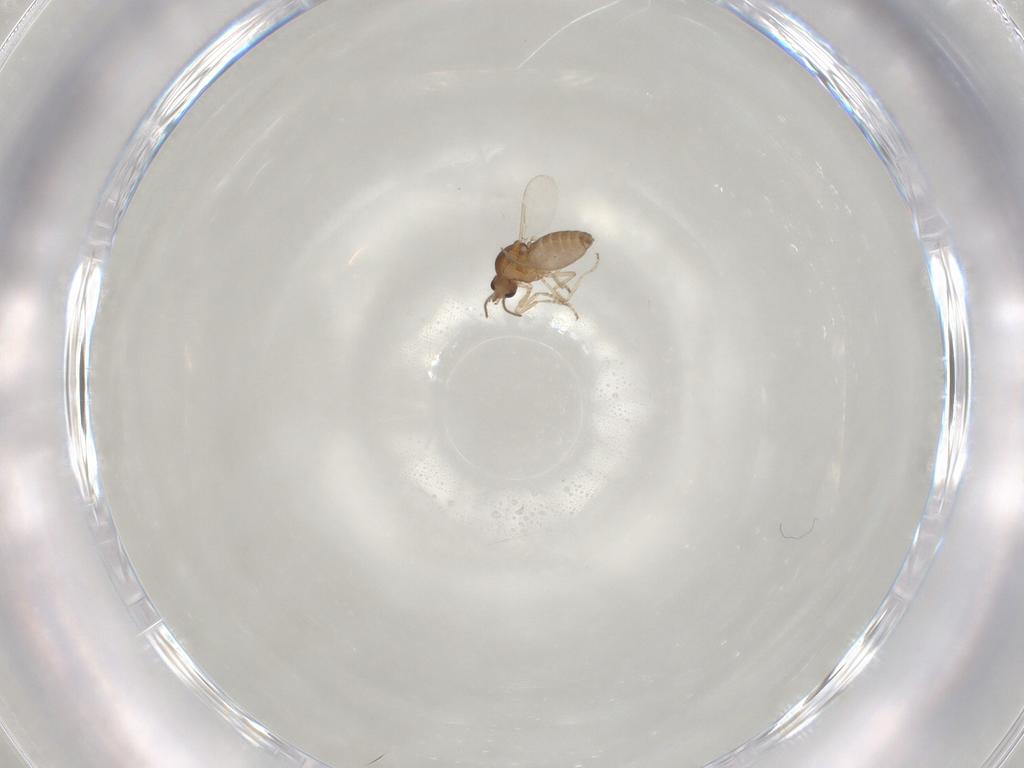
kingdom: Animalia
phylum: Arthropoda
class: Insecta
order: Diptera
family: Ceratopogonidae
